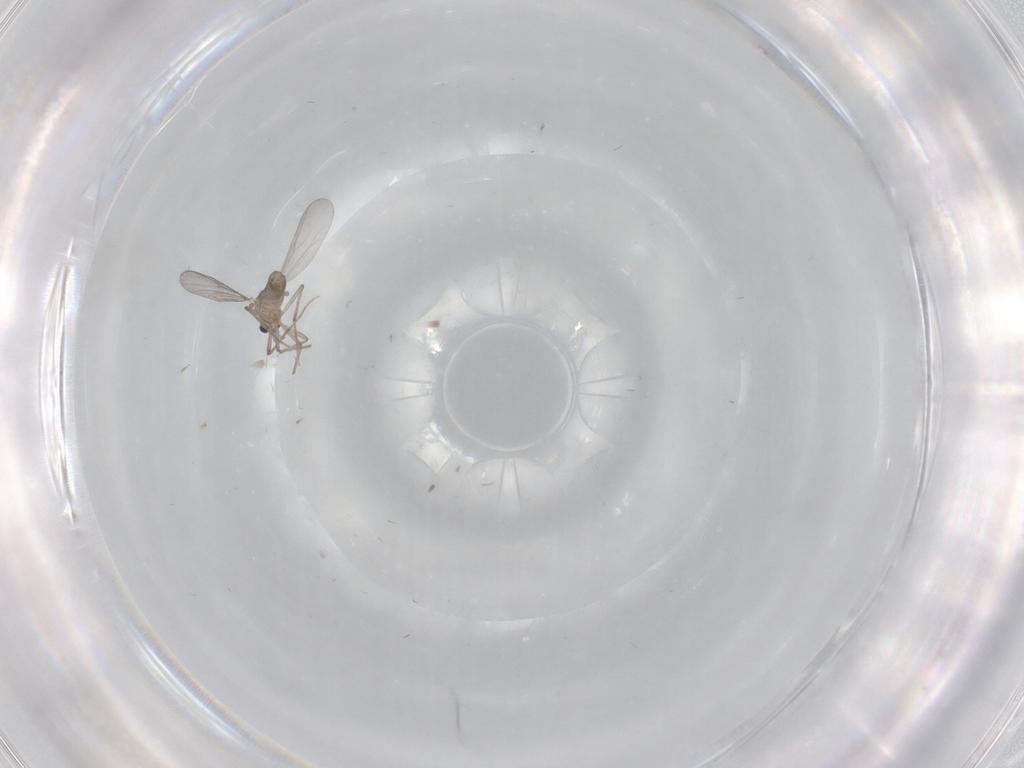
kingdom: Animalia
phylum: Arthropoda
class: Insecta
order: Diptera
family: Chironomidae
